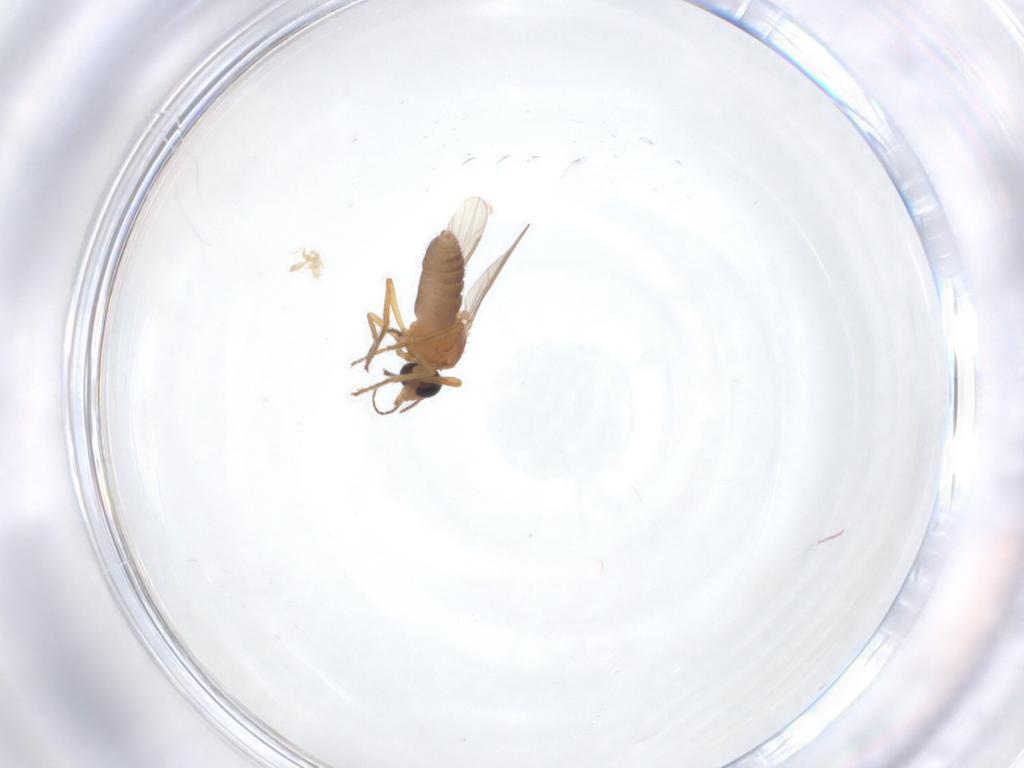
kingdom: Animalia
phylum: Arthropoda
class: Insecta
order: Diptera
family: Ceratopogonidae
